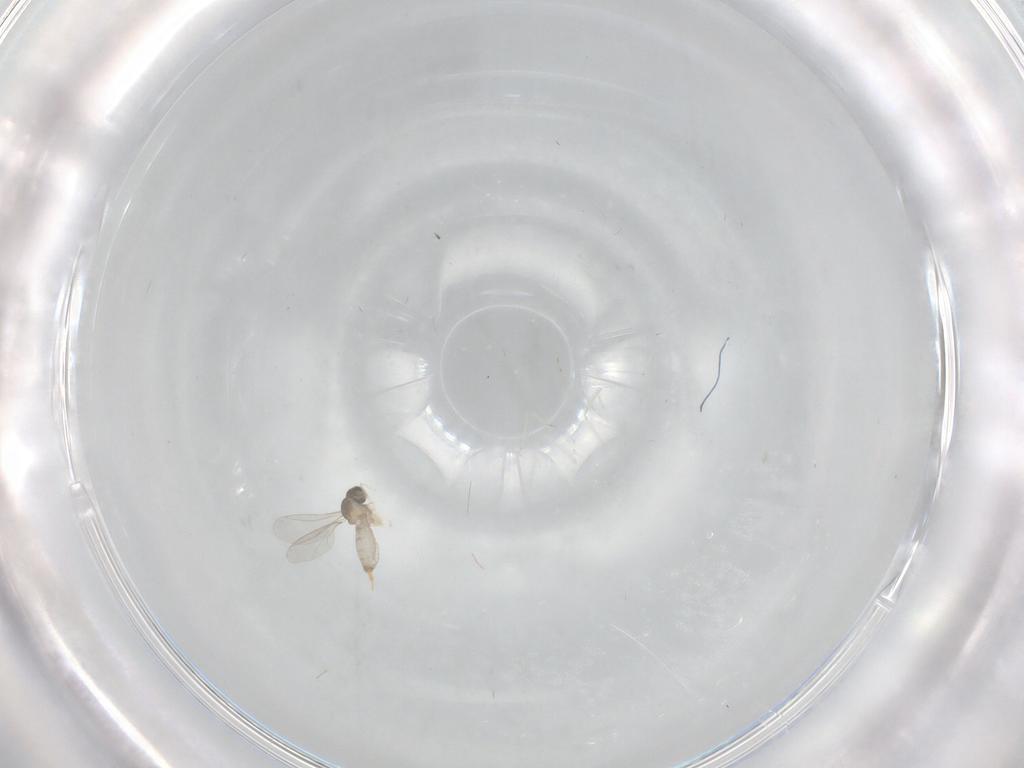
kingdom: Animalia
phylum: Arthropoda
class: Insecta
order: Diptera
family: Cecidomyiidae
